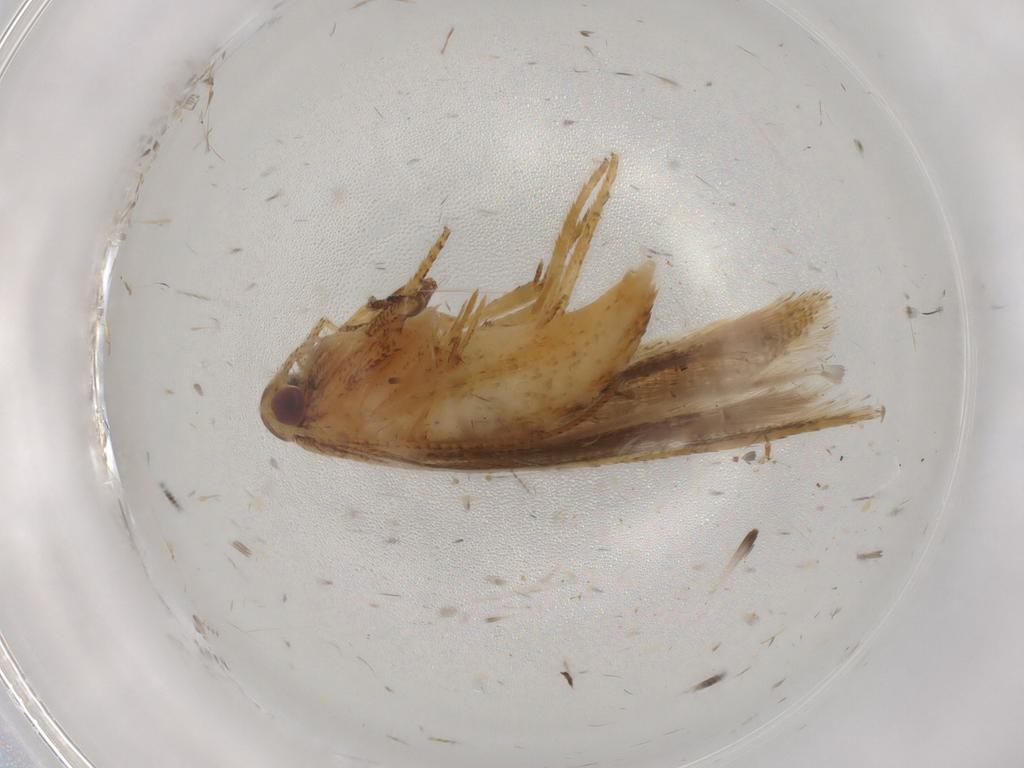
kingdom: Animalia
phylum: Arthropoda
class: Insecta
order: Lepidoptera
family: Gelechiidae
